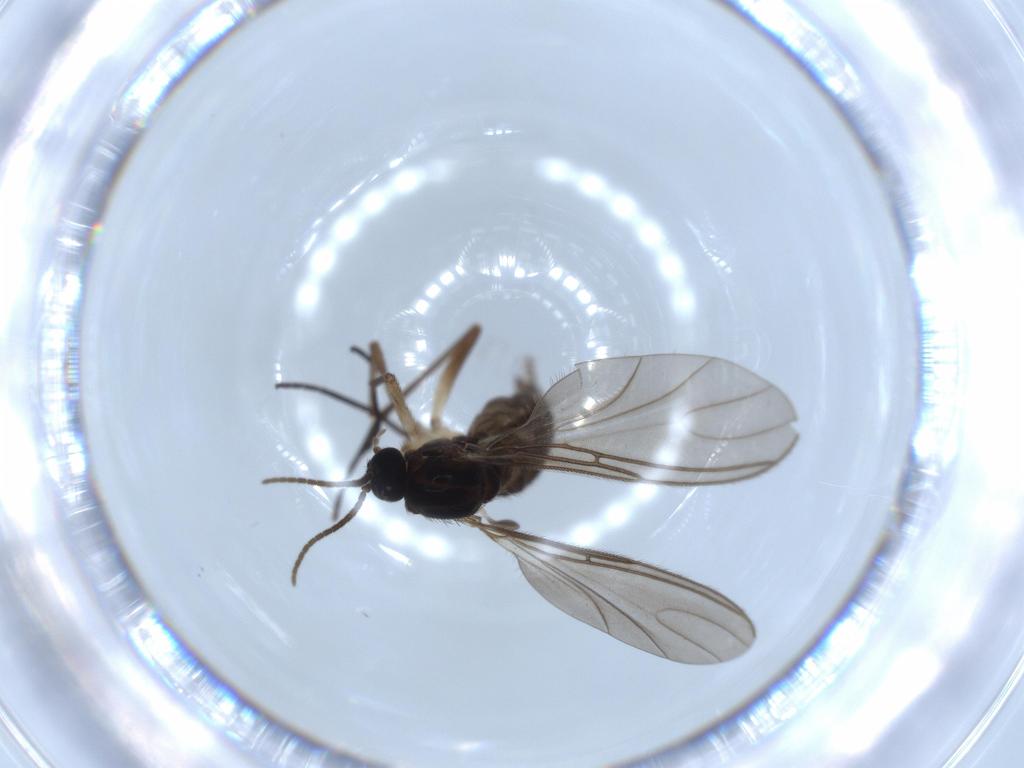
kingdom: Animalia
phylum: Arthropoda
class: Insecta
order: Diptera
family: Sciaridae
